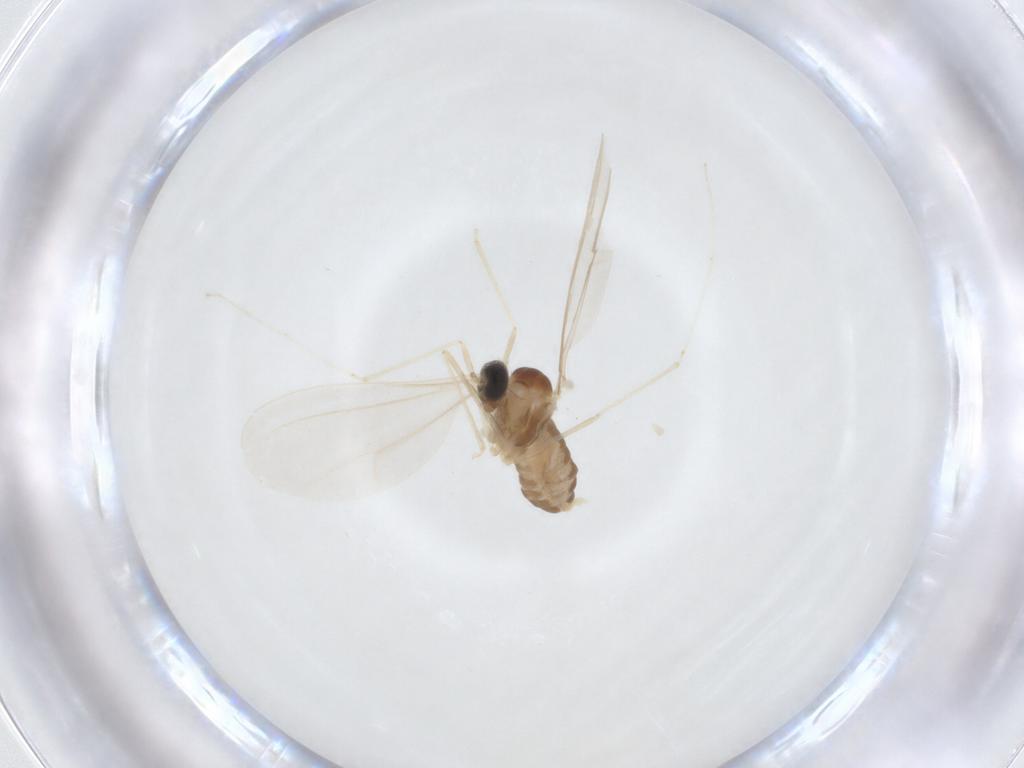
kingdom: Animalia
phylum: Arthropoda
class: Insecta
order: Diptera
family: Cecidomyiidae
